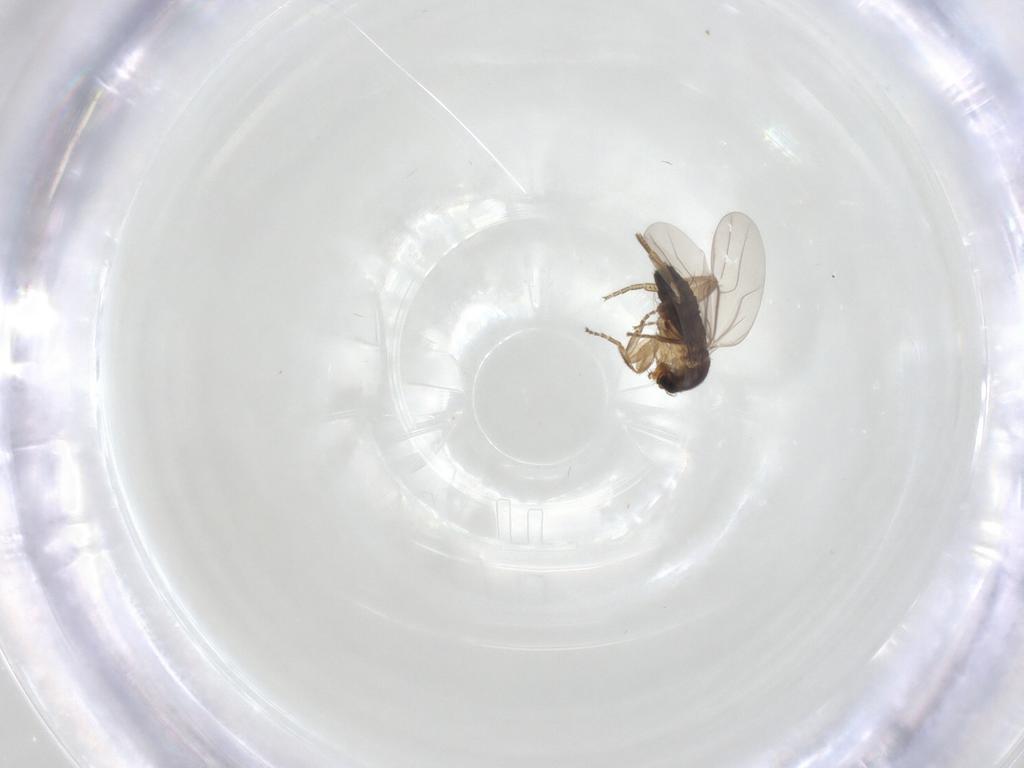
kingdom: Animalia
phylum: Arthropoda
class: Insecta
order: Diptera
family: Phoridae
